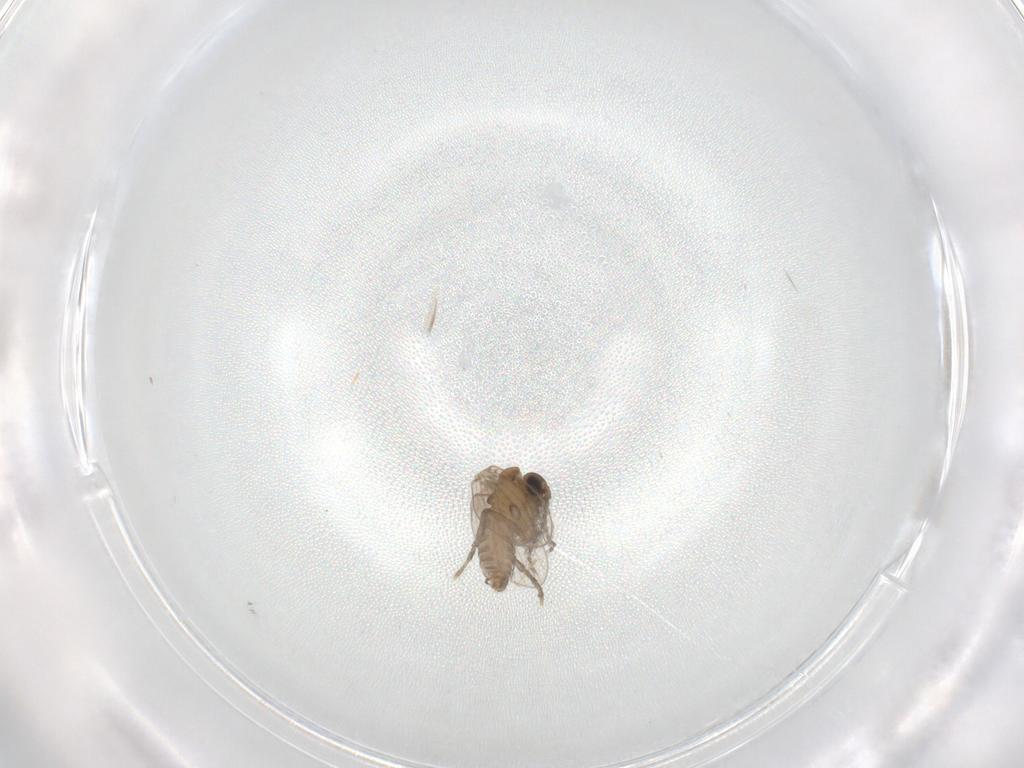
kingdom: Animalia
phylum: Arthropoda
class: Insecta
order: Diptera
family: Psychodidae
